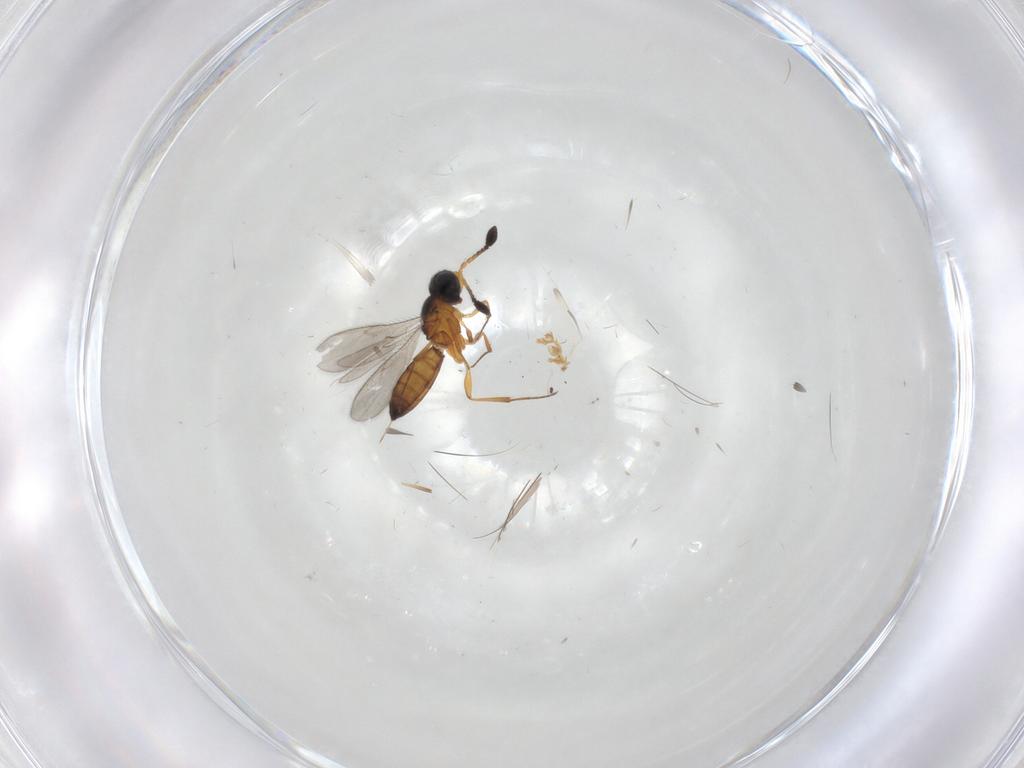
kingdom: Animalia
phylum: Arthropoda
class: Insecta
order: Hymenoptera
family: Scelionidae
